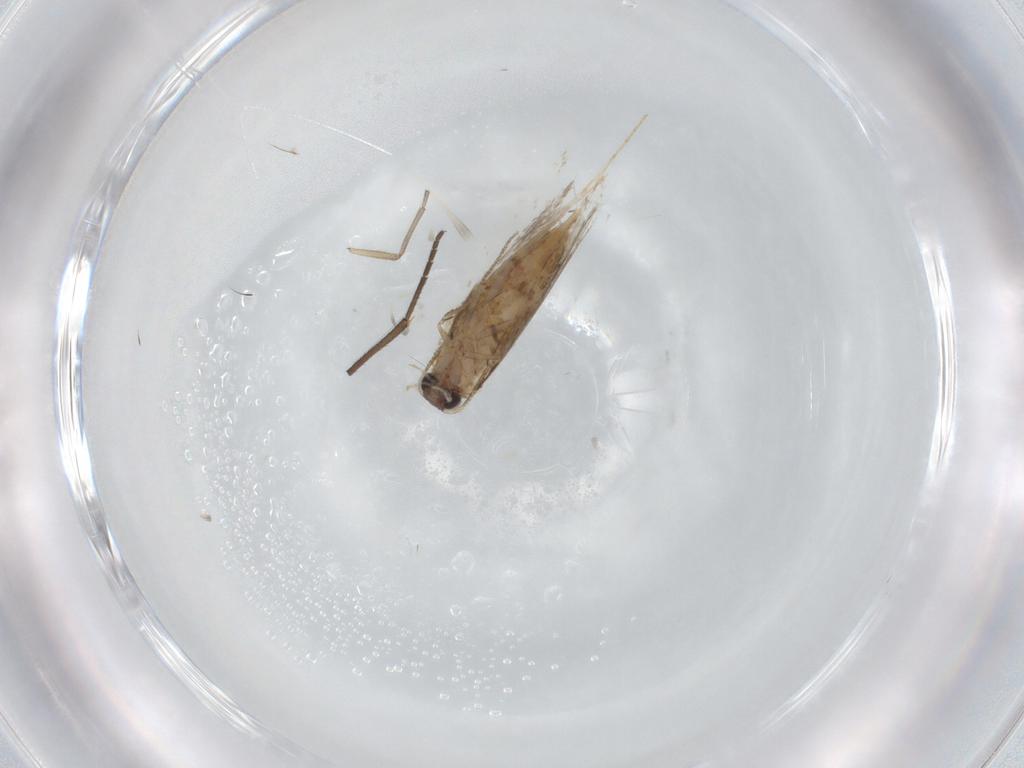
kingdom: Animalia
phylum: Arthropoda
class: Insecta
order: Lepidoptera
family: Tineidae
